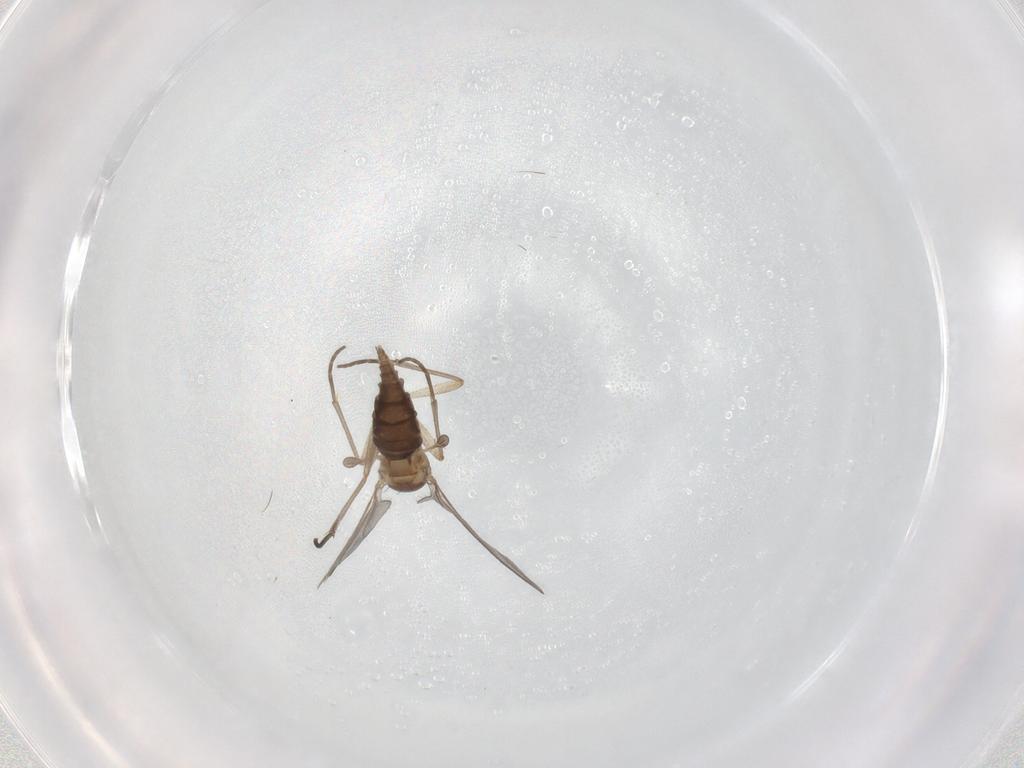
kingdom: Animalia
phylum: Arthropoda
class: Insecta
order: Diptera
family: Sciaridae
